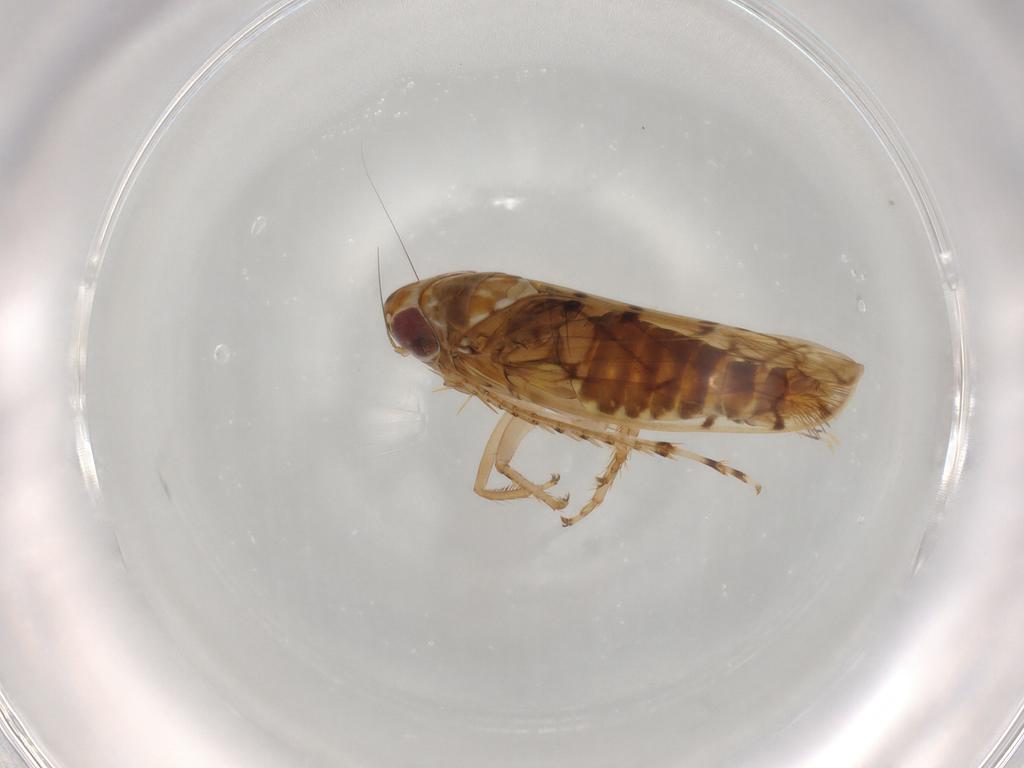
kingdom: Animalia
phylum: Arthropoda
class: Insecta
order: Hemiptera
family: Cicadellidae
